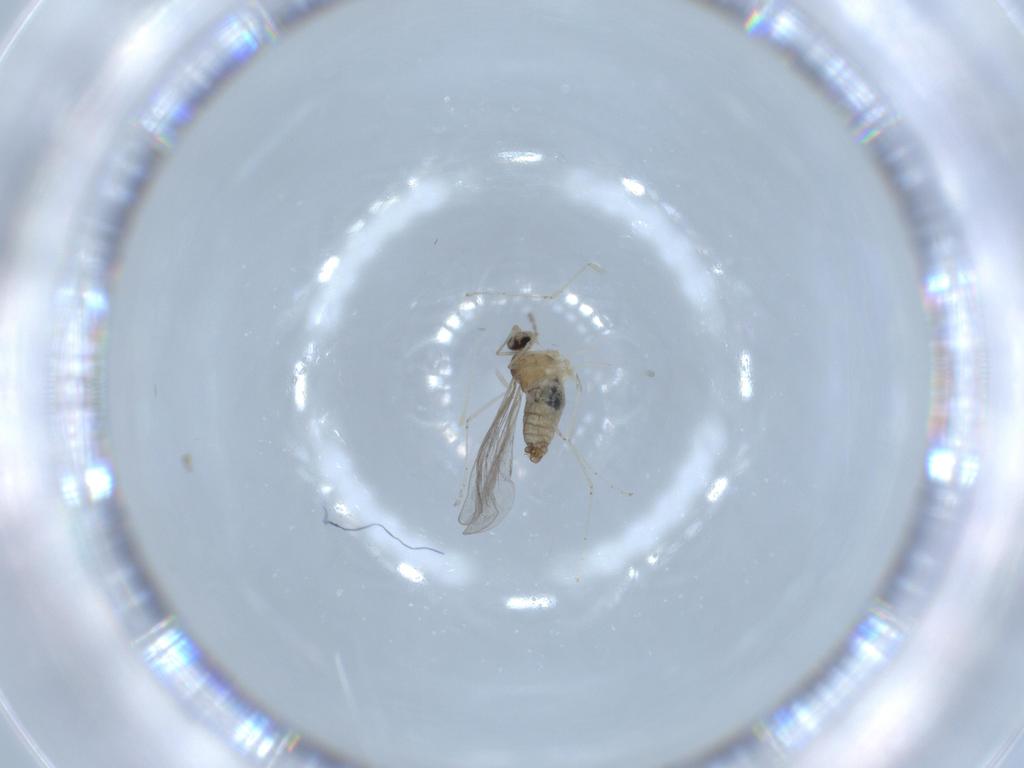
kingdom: Animalia
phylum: Arthropoda
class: Insecta
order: Diptera
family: Cecidomyiidae
